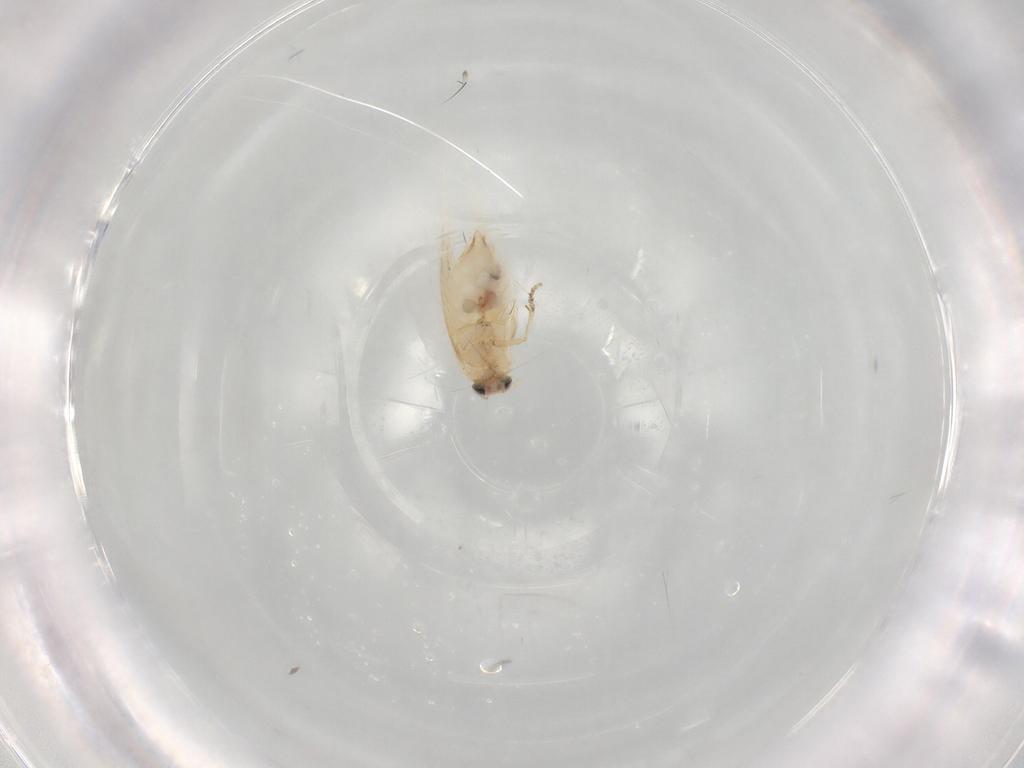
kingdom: Animalia
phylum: Arthropoda
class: Insecta
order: Lepidoptera
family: Nepticulidae
